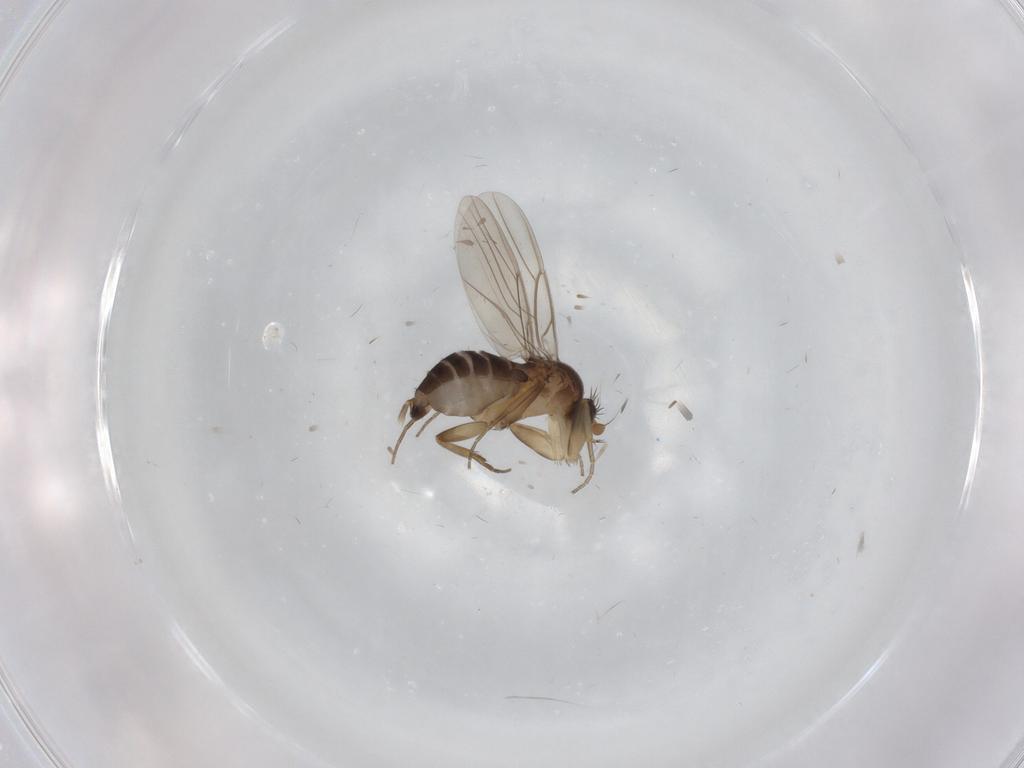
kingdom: Animalia
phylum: Arthropoda
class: Insecta
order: Diptera
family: Phoridae
